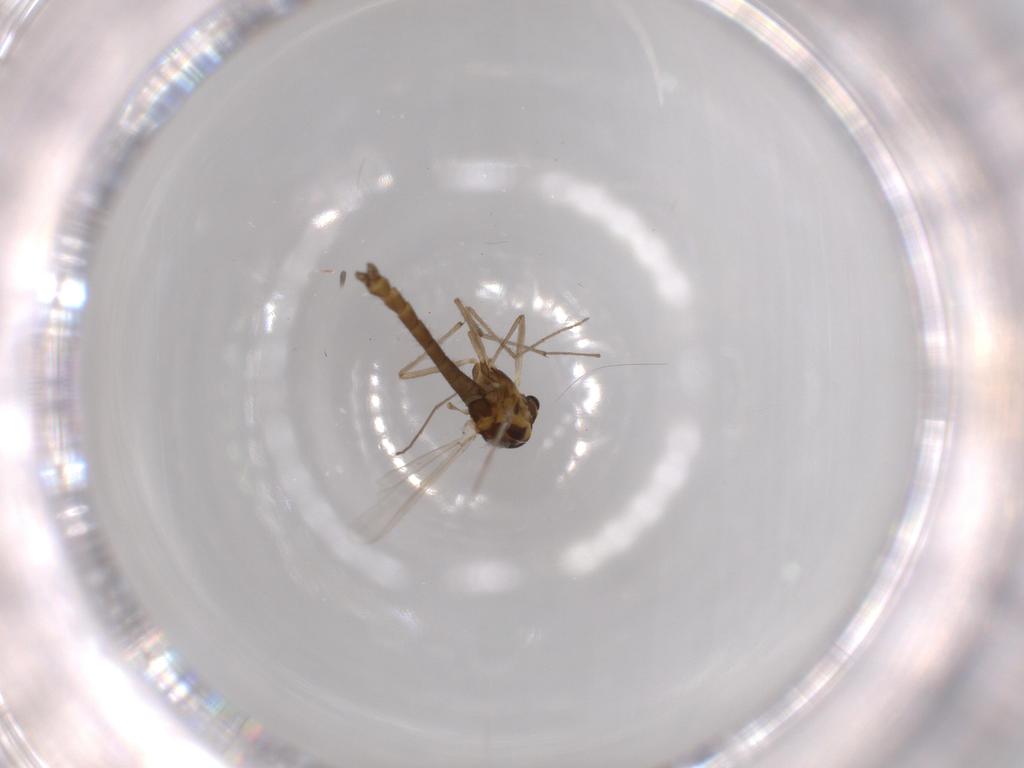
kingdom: Animalia
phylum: Arthropoda
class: Insecta
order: Diptera
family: Chironomidae
